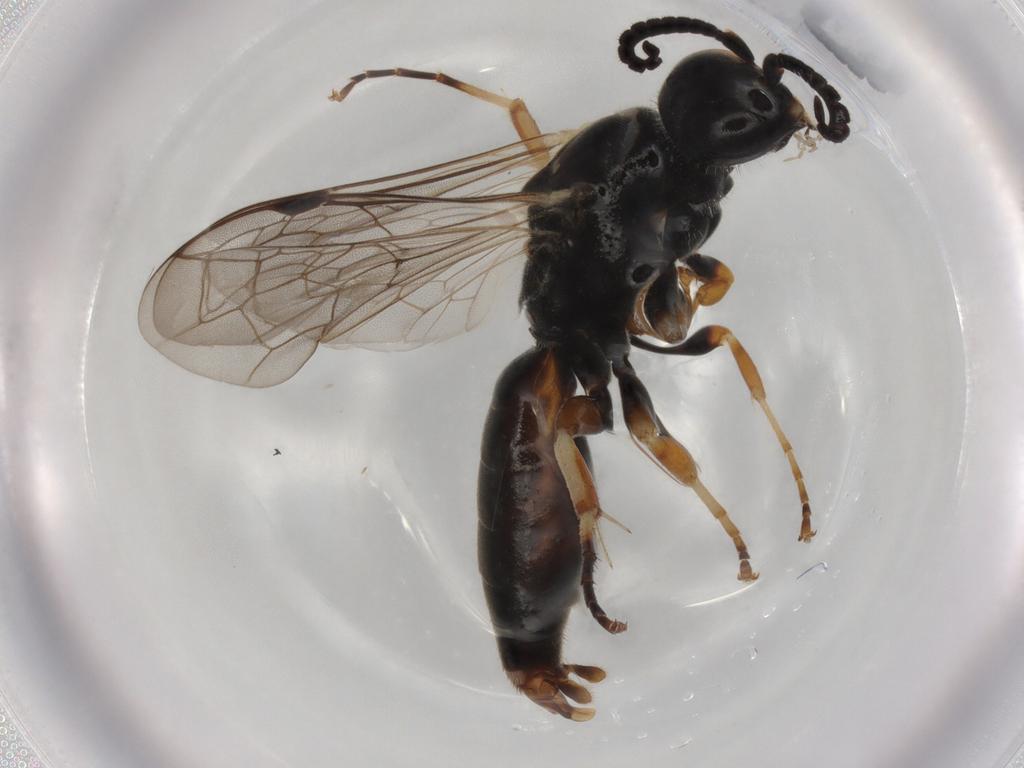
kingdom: Animalia
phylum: Arthropoda
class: Insecta
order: Hymenoptera
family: Thynnidae
